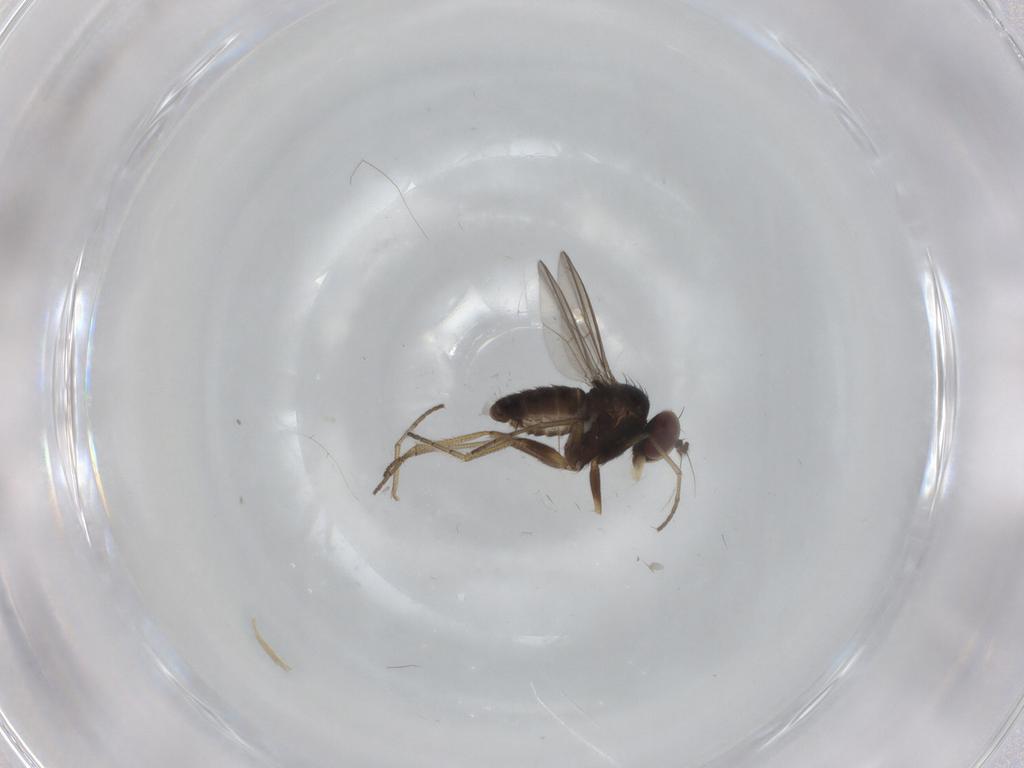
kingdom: Animalia
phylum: Arthropoda
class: Insecta
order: Diptera
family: Dolichopodidae
